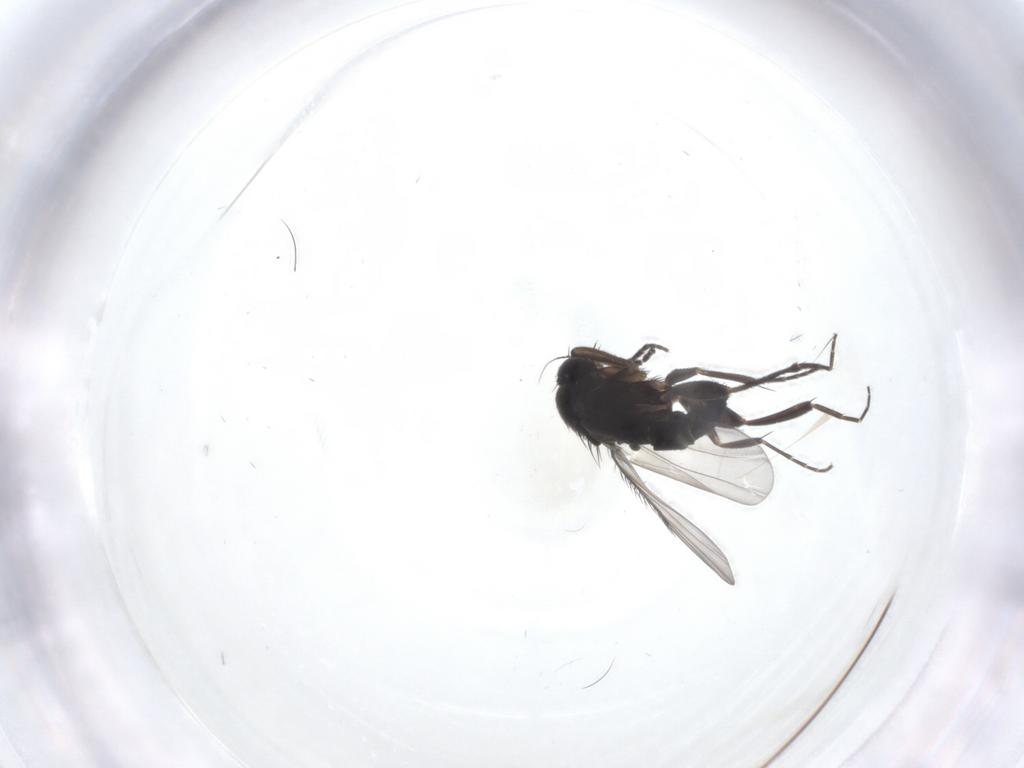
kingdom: Animalia
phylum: Arthropoda
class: Insecta
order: Diptera
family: Phoridae
